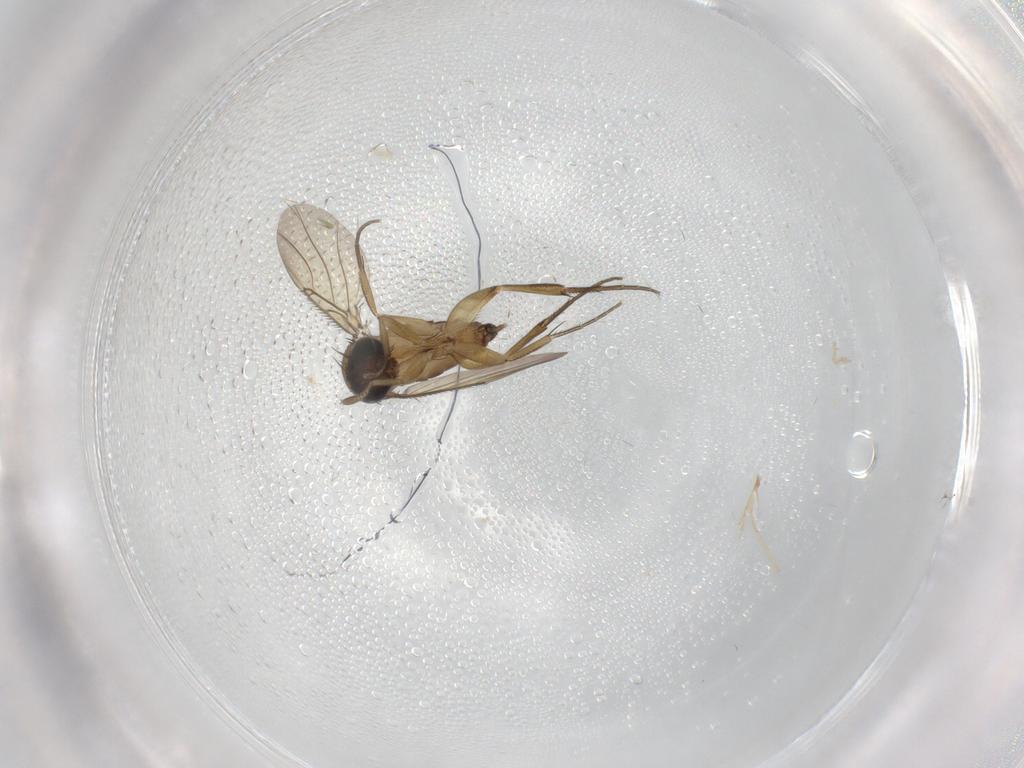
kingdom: Animalia
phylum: Arthropoda
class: Insecta
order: Diptera
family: Phoridae
